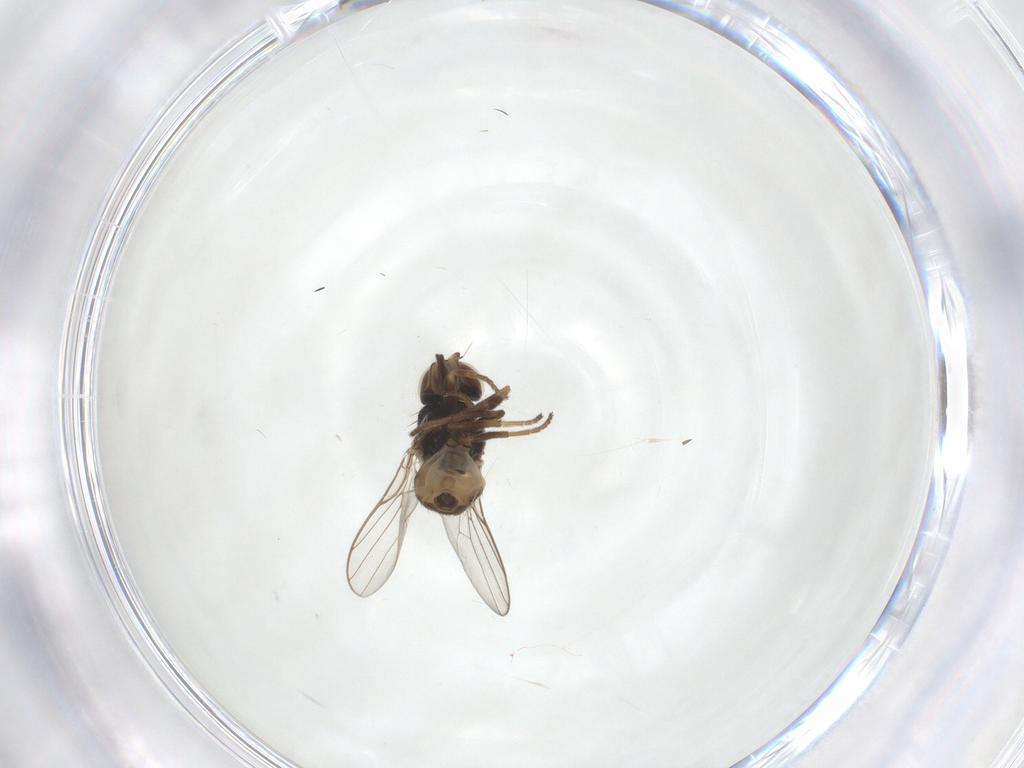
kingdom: Animalia
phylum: Arthropoda
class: Insecta
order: Diptera
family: Chloropidae
